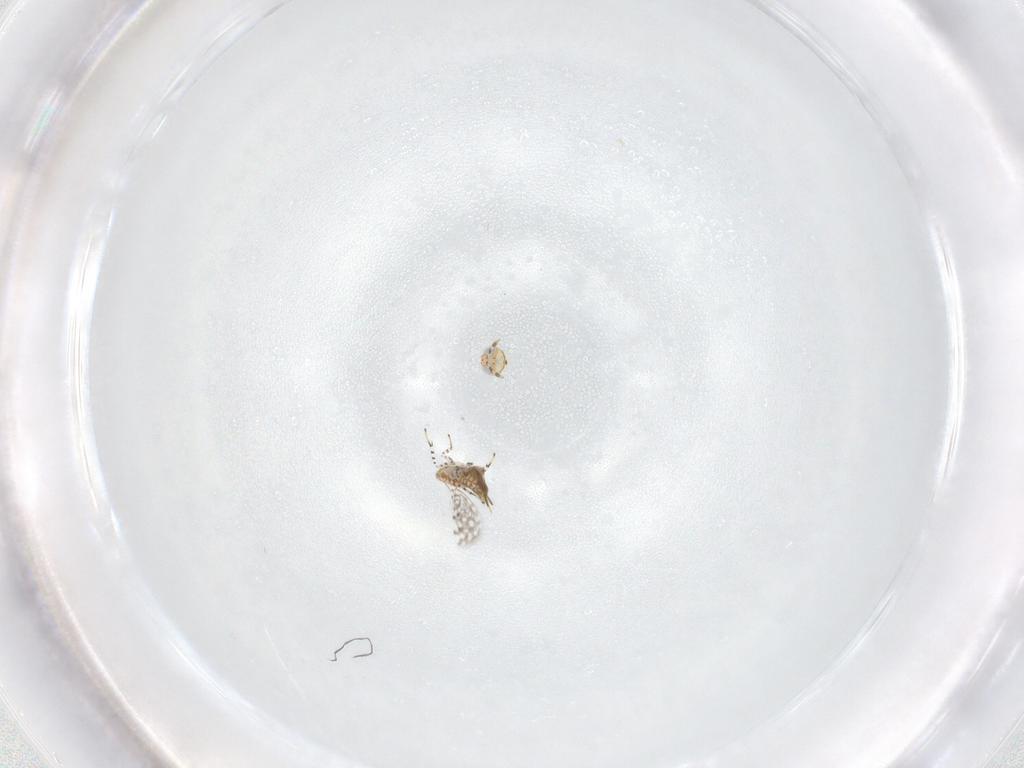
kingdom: Animalia
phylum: Arthropoda
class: Insecta
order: Hymenoptera
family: Aphelinidae
